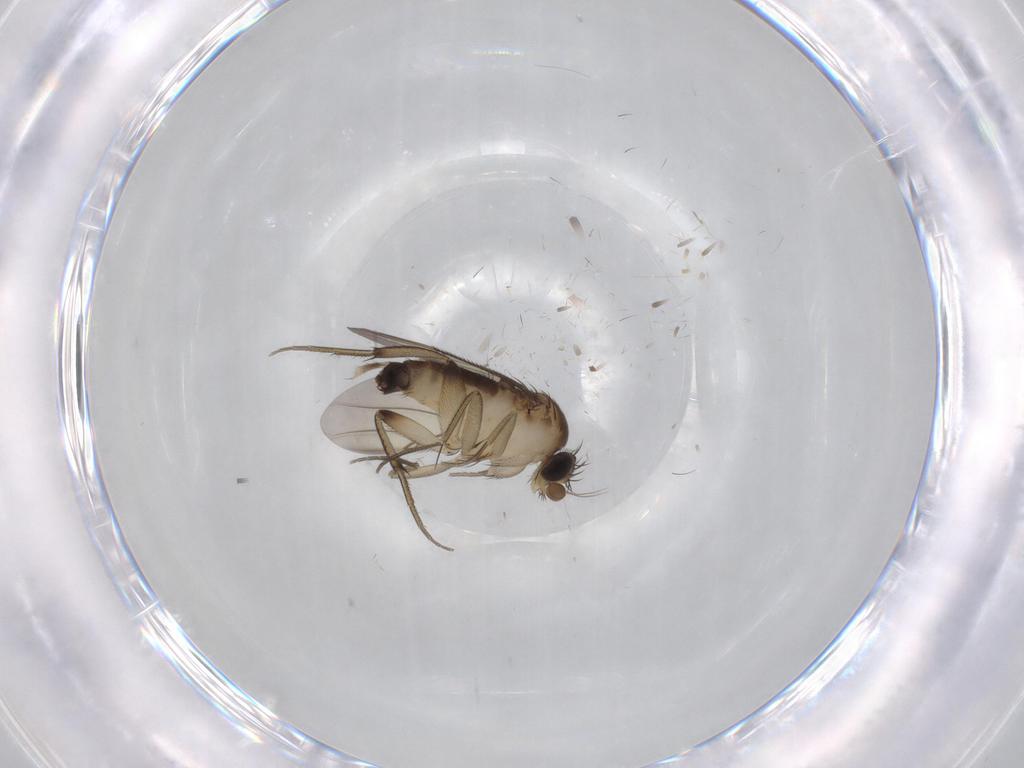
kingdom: Animalia
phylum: Arthropoda
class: Insecta
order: Diptera
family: Phoridae
